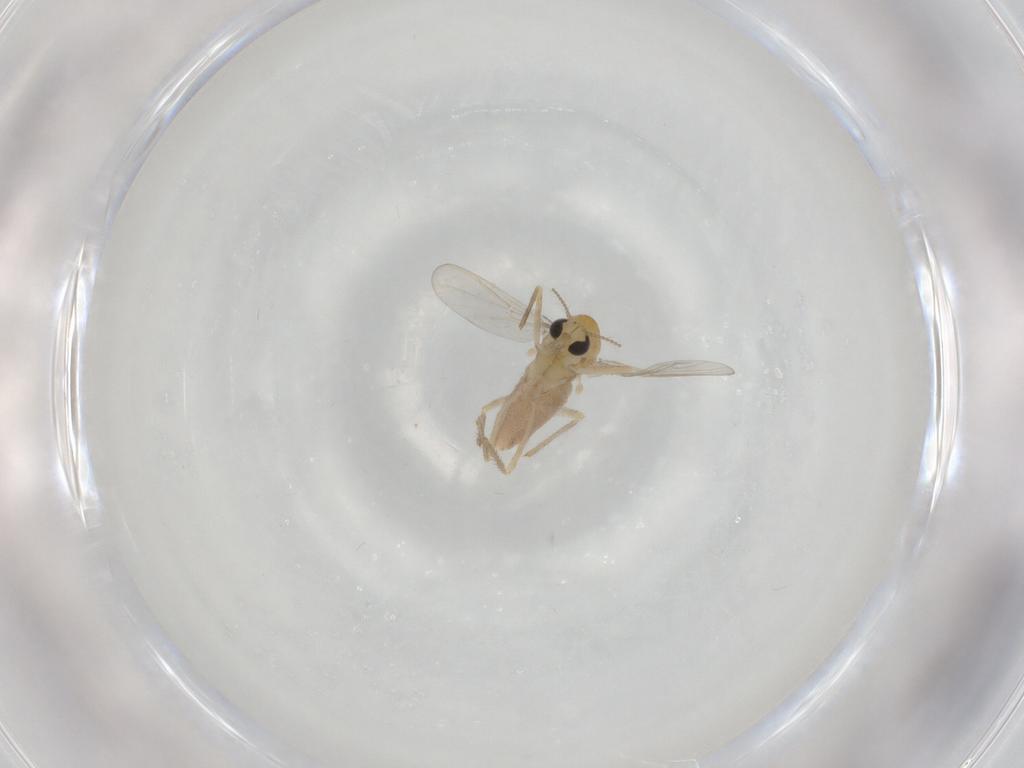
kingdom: Animalia
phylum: Arthropoda
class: Insecta
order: Diptera
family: Chironomidae
